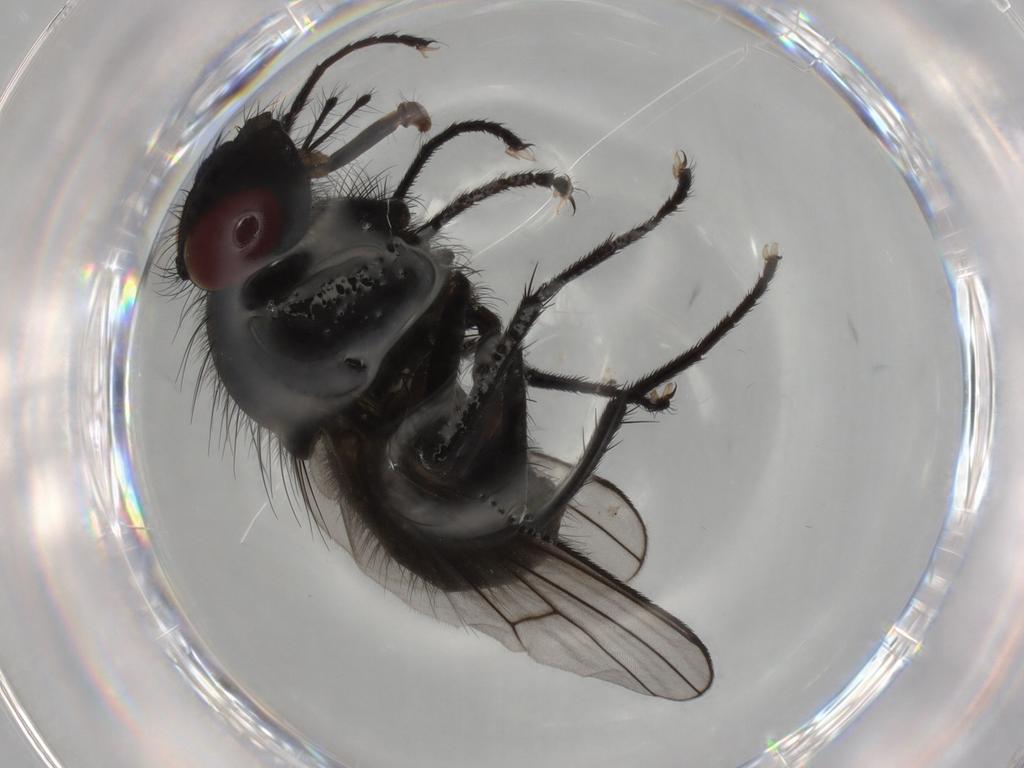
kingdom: Animalia
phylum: Arthropoda
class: Insecta
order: Diptera
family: Muscidae
